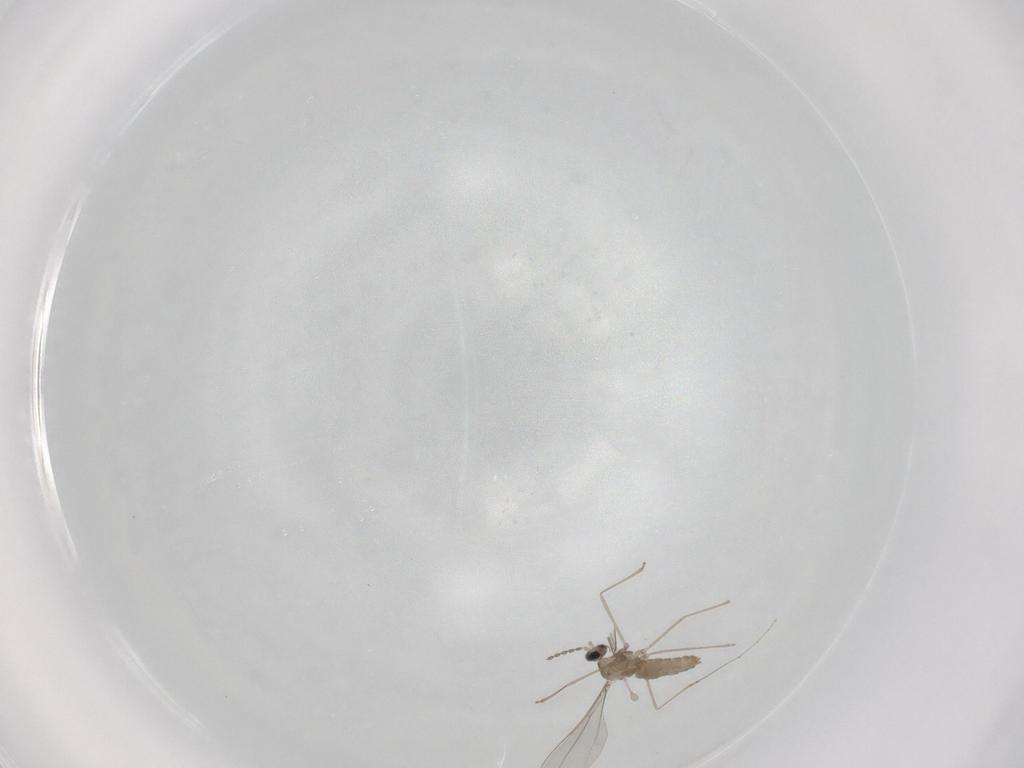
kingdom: Animalia
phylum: Arthropoda
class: Insecta
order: Diptera
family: Cecidomyiidae
